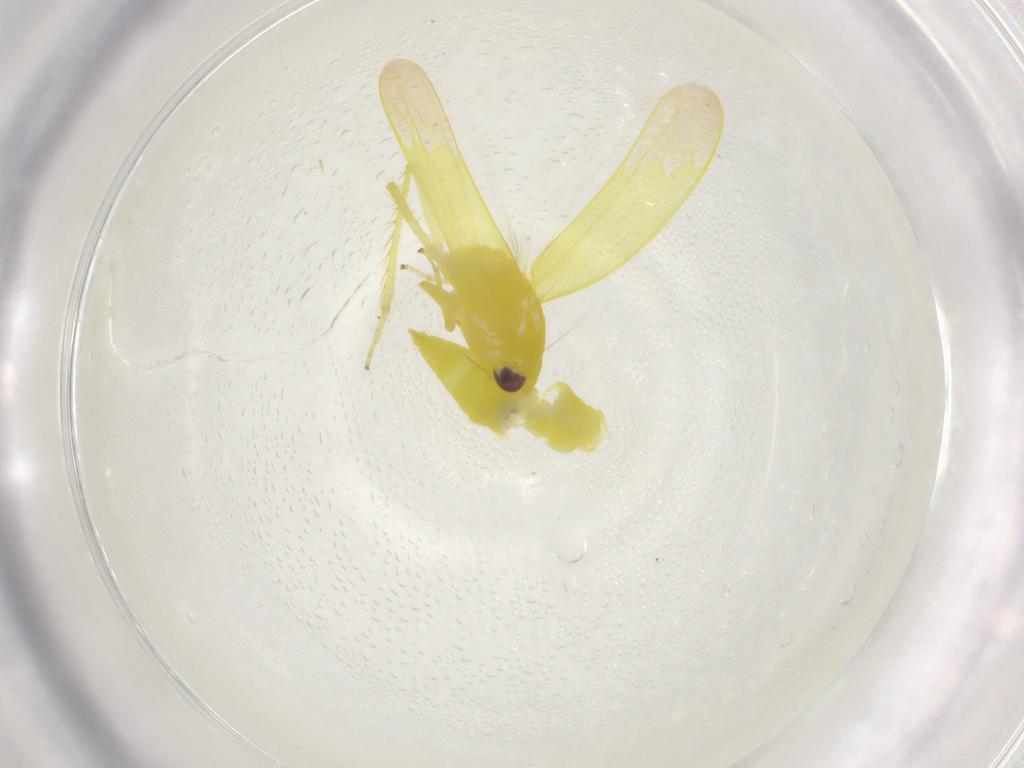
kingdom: Animalia
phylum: Arthropoda
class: Insecta
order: Hemiptera
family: Cicadellidae
